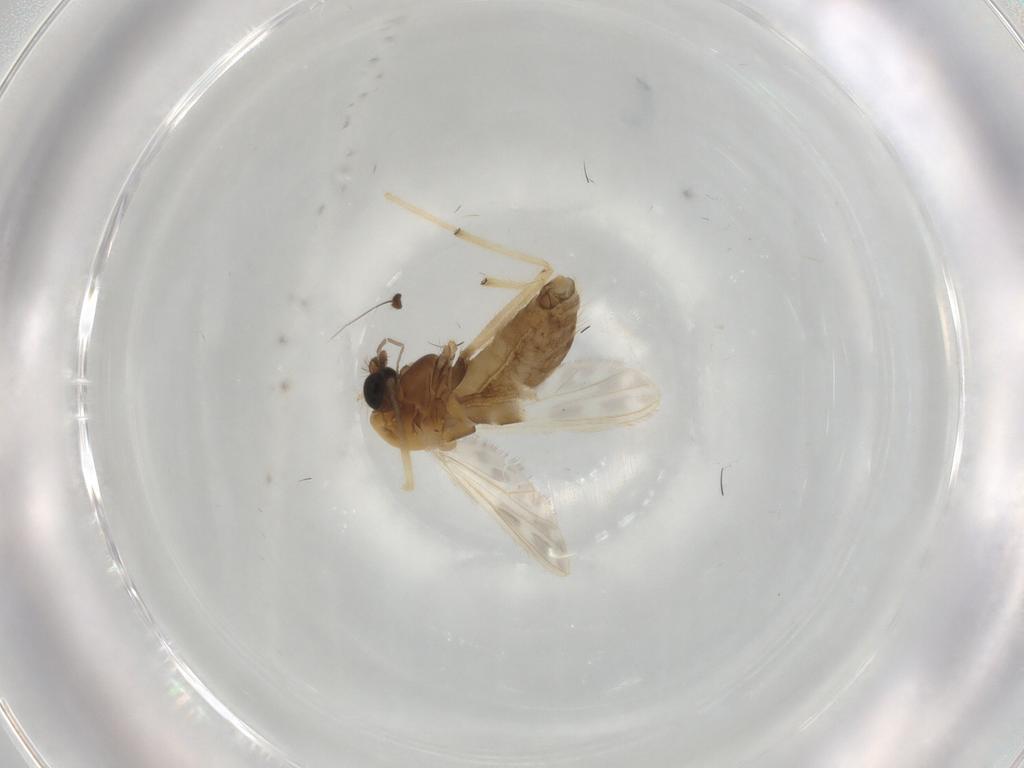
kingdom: Animalia
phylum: Arthropoda
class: Insecta
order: Diptera
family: Chironomidae
